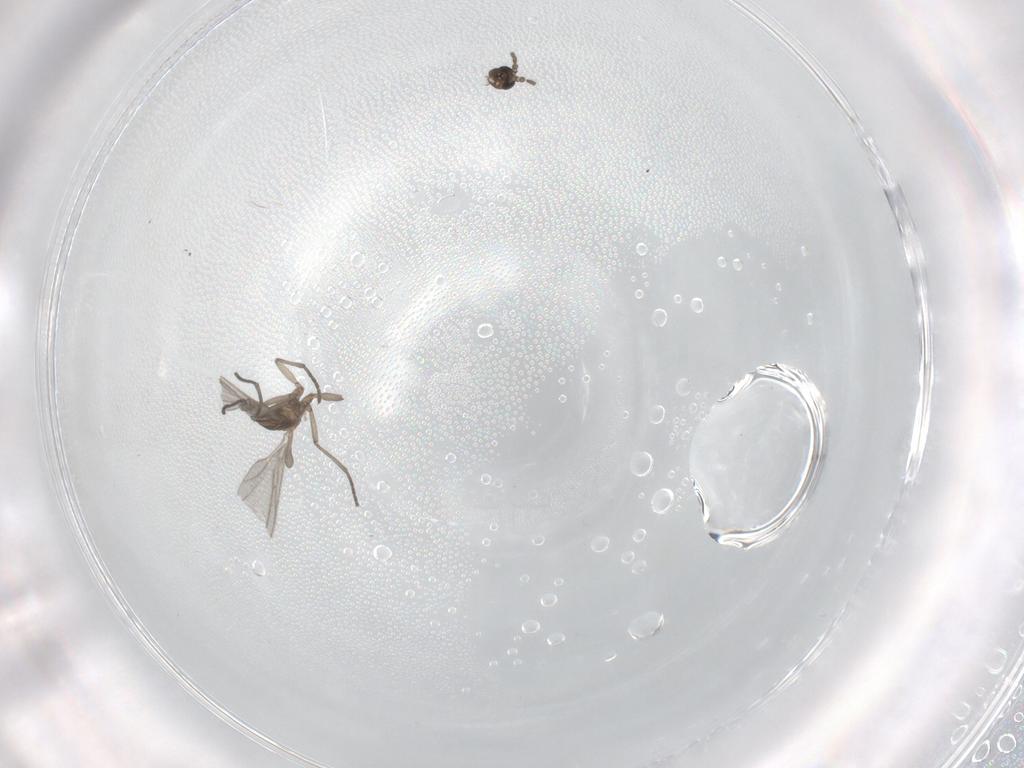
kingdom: Animalia
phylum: Arthropoda
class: Insecta
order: Diptera
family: Sciaridae
